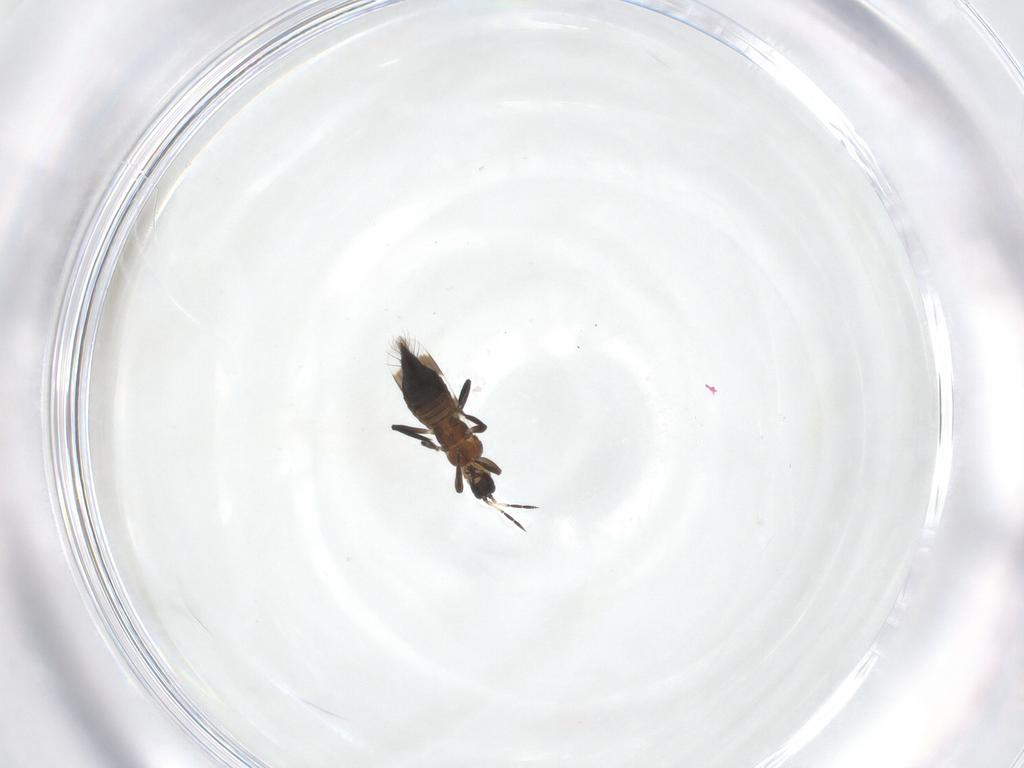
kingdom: Animalia
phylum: Arthropoda
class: Insecta
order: Thysanoptera
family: Aeolothripidae
